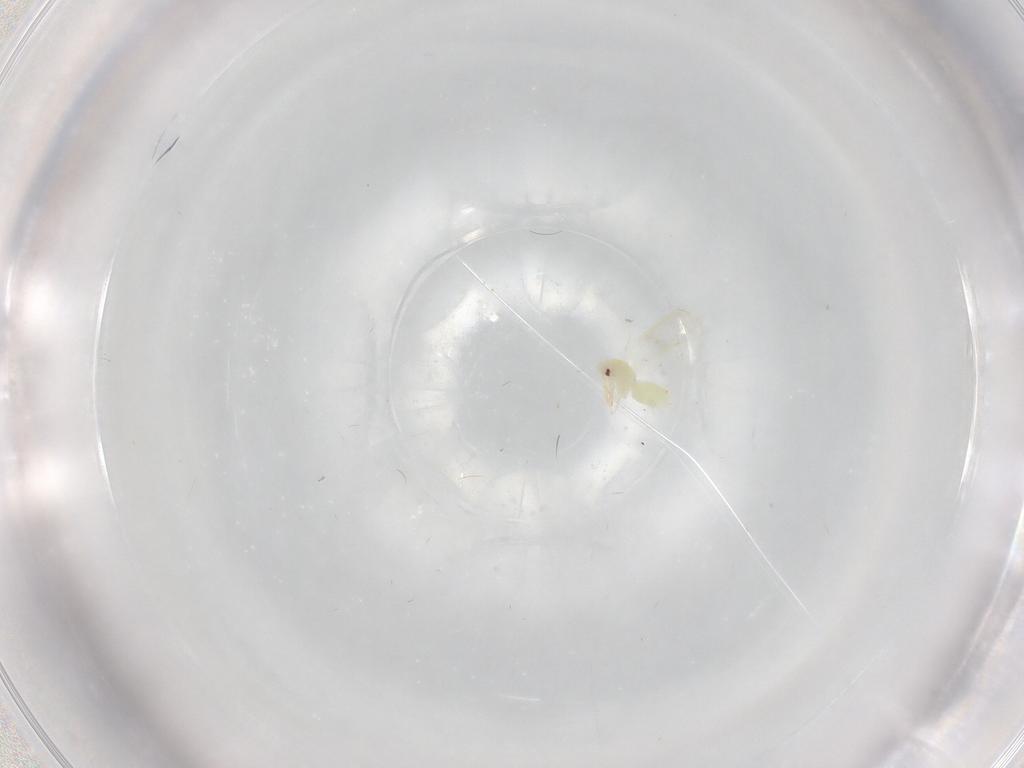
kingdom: Animalia
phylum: Arthropoda
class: Insecta
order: Hemiptera
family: Aleyrodidae
